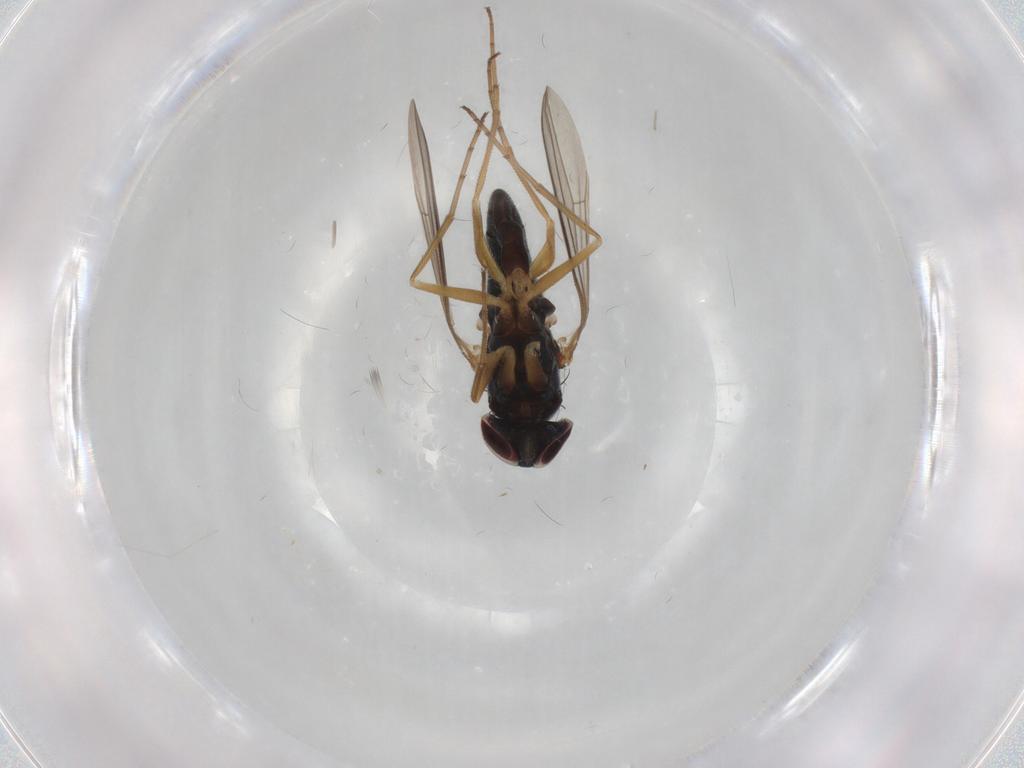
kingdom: Animalia
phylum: Arthropoda
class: Insecta
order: Diptera
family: Dolichopodidae
